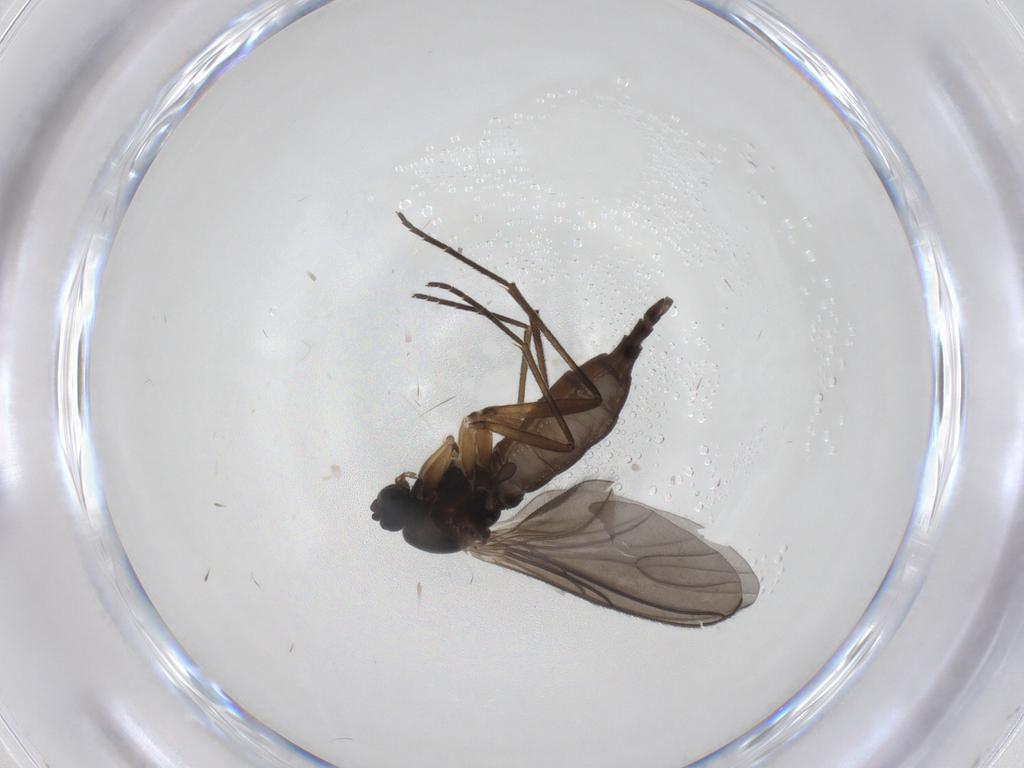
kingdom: Animalia
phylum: Arthropoda
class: Insecta
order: Diptera
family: Sciaridae
